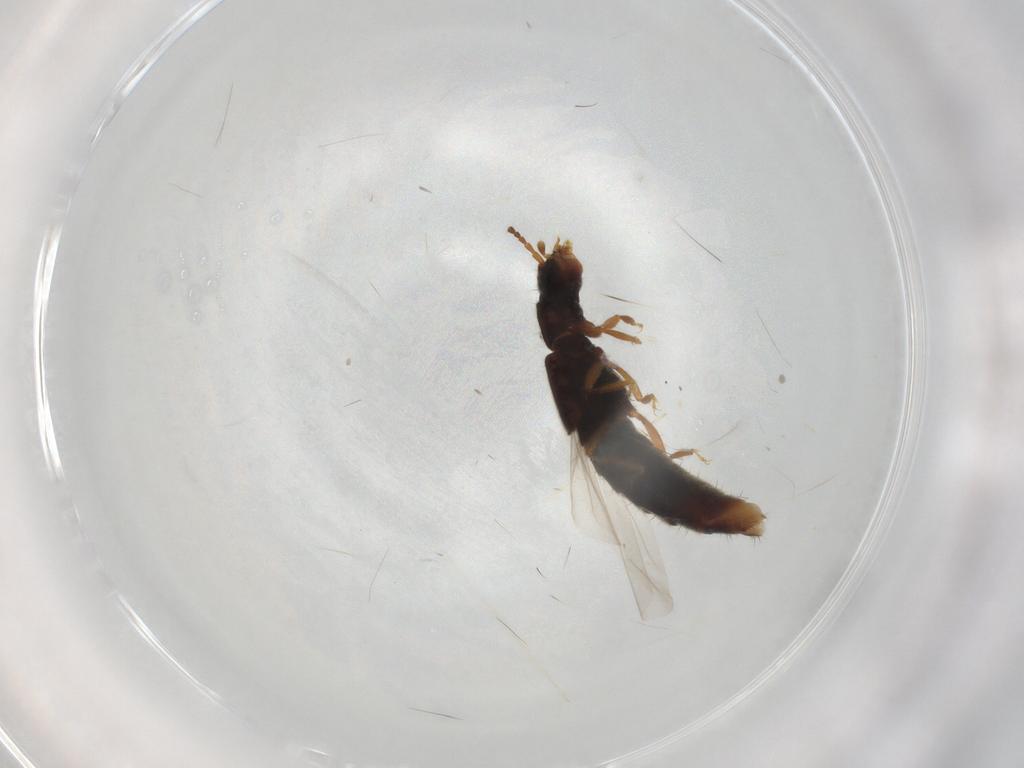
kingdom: Animalia
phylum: Arthropoda
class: Insecta
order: Coleoptera
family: Staphylinidae
